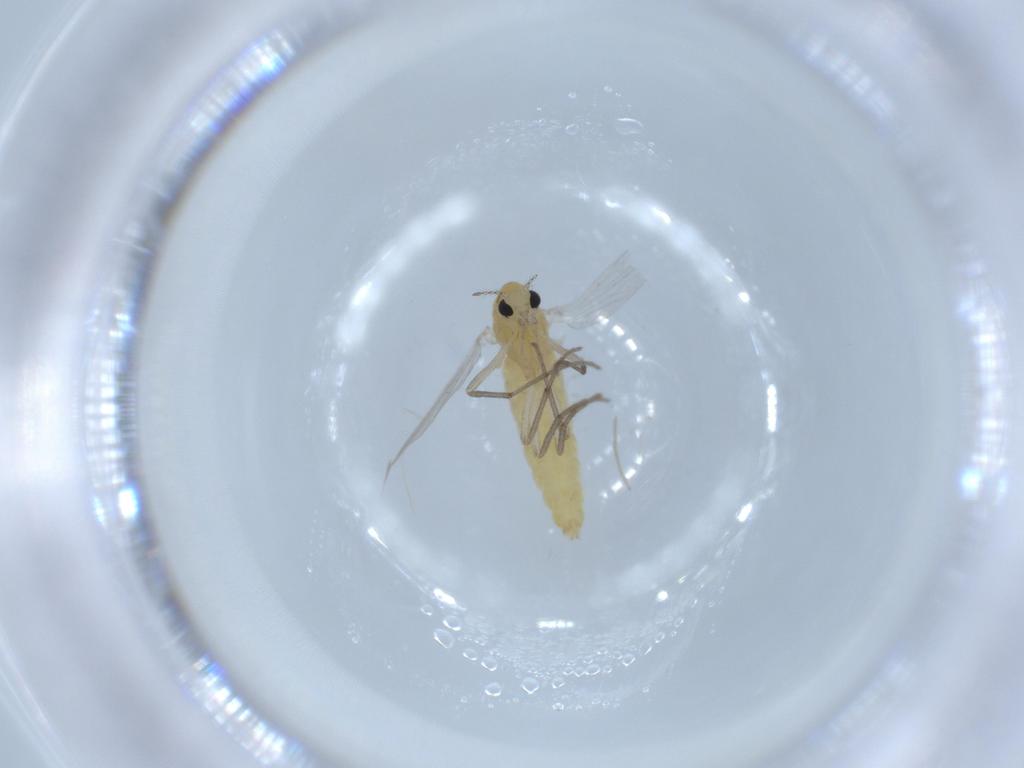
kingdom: Animalia
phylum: Arthropoda
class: Insecta
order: Diptera
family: Chironomidae
